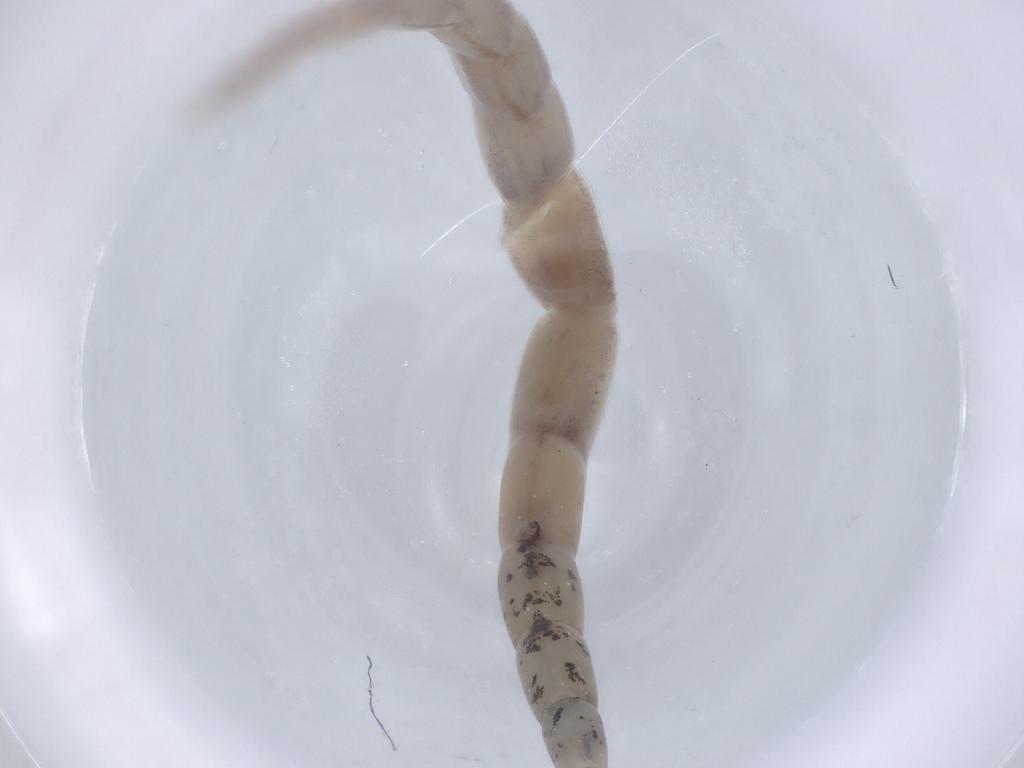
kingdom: Animalia
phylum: Arthropoda
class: Insecta
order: Diptera
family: Ceratopogonidae
